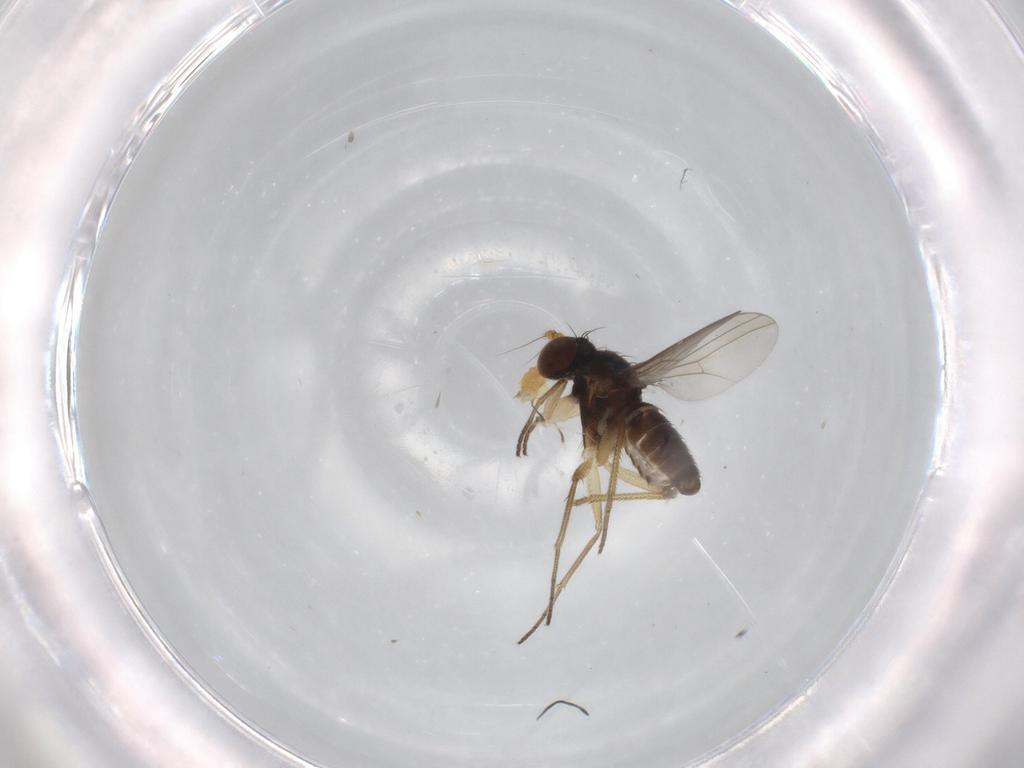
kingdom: Animalia
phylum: Arthropoda
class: Insecta
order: Diptera
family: Dolichopodidae
